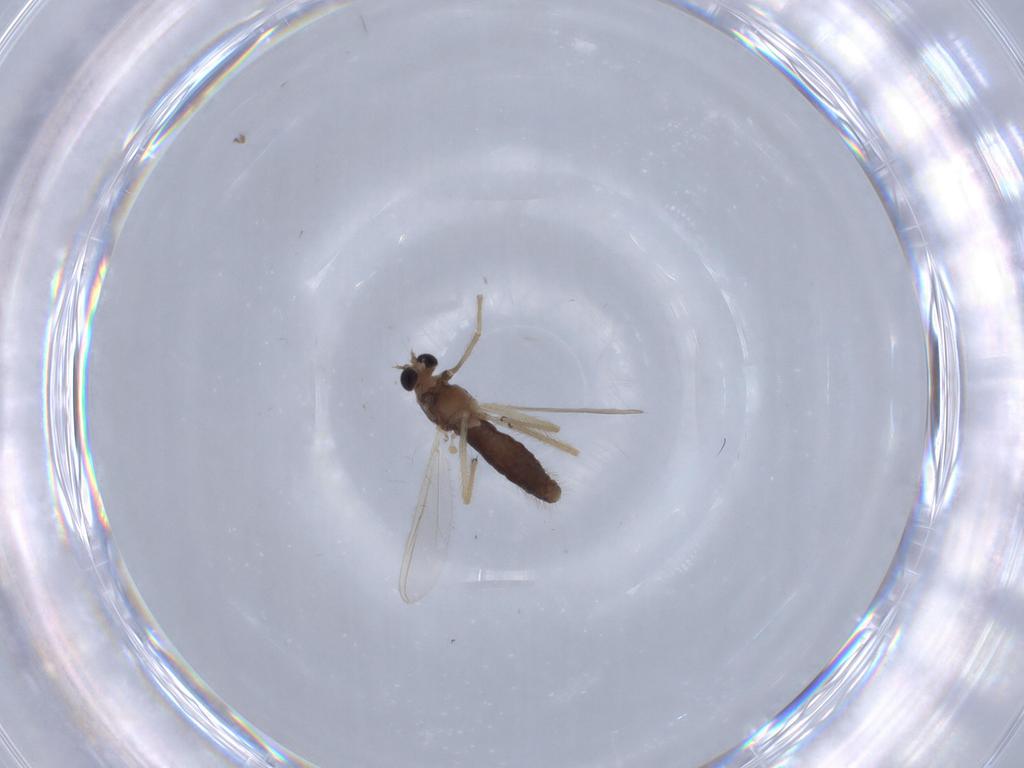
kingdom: Animalia
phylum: Arthropoda
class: Insecta
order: Diptera
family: Chironomidae
